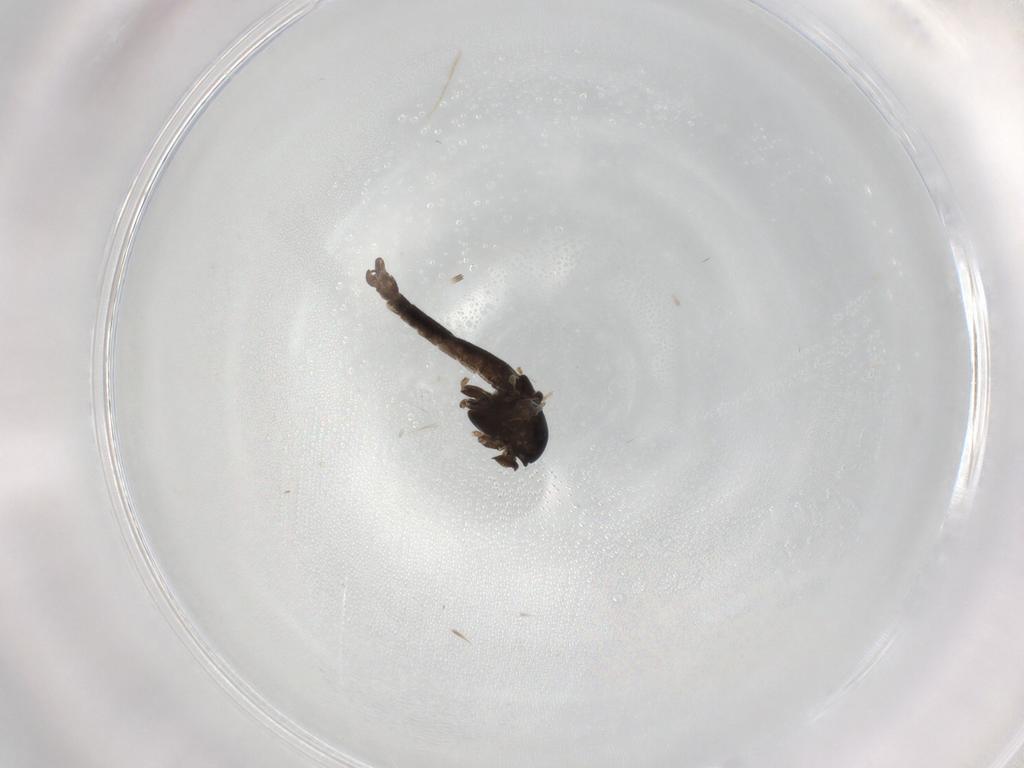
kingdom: Animalia
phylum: Arthropoda
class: Insecta
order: Diptera
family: Chironomidae
